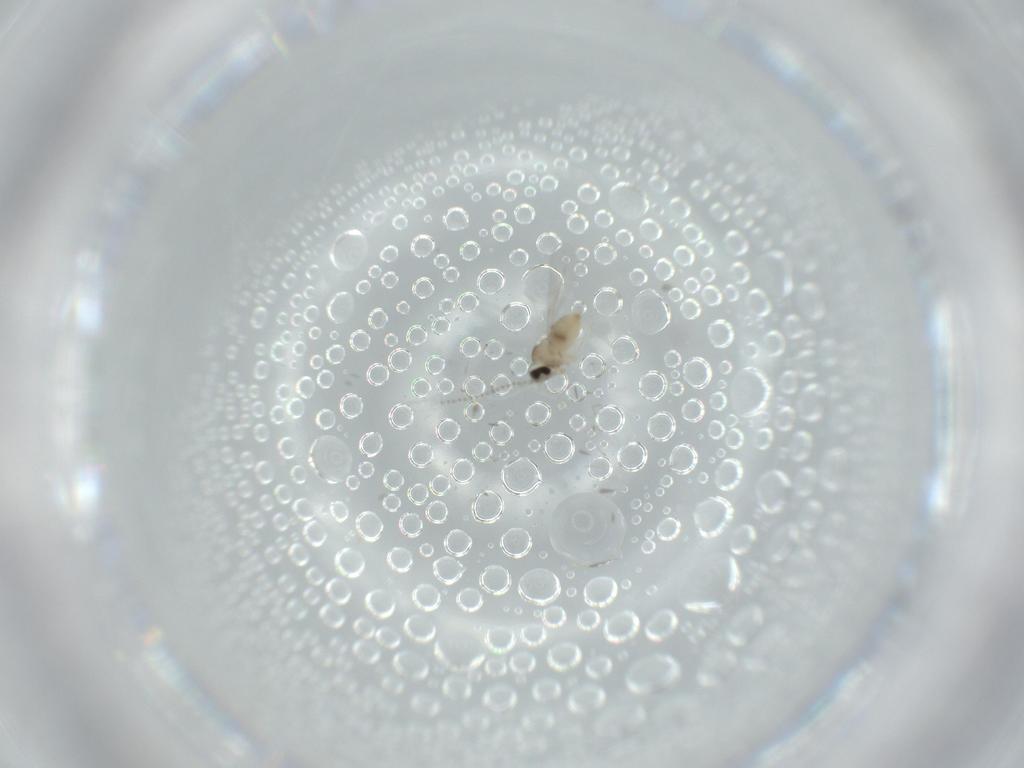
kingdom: Animalia
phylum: Arthropoda
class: Insecta
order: Diptera
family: Cecidomyiidae
